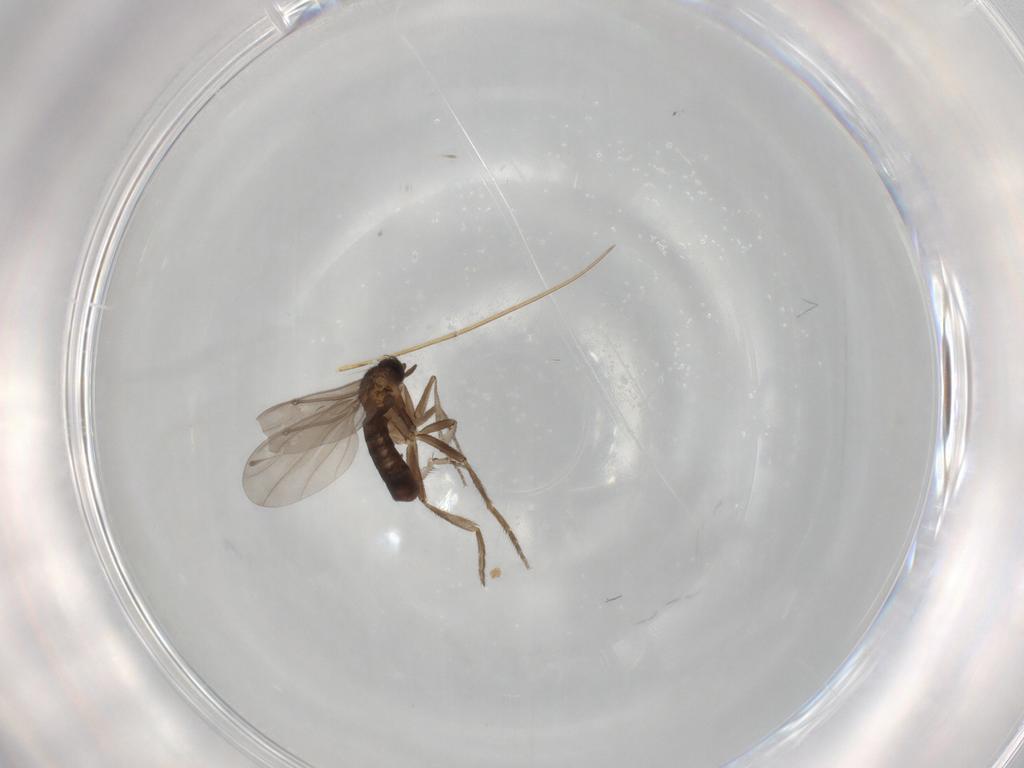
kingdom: Animalia
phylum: Arthropoda
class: Insecta
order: Diptera
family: Phoridae
